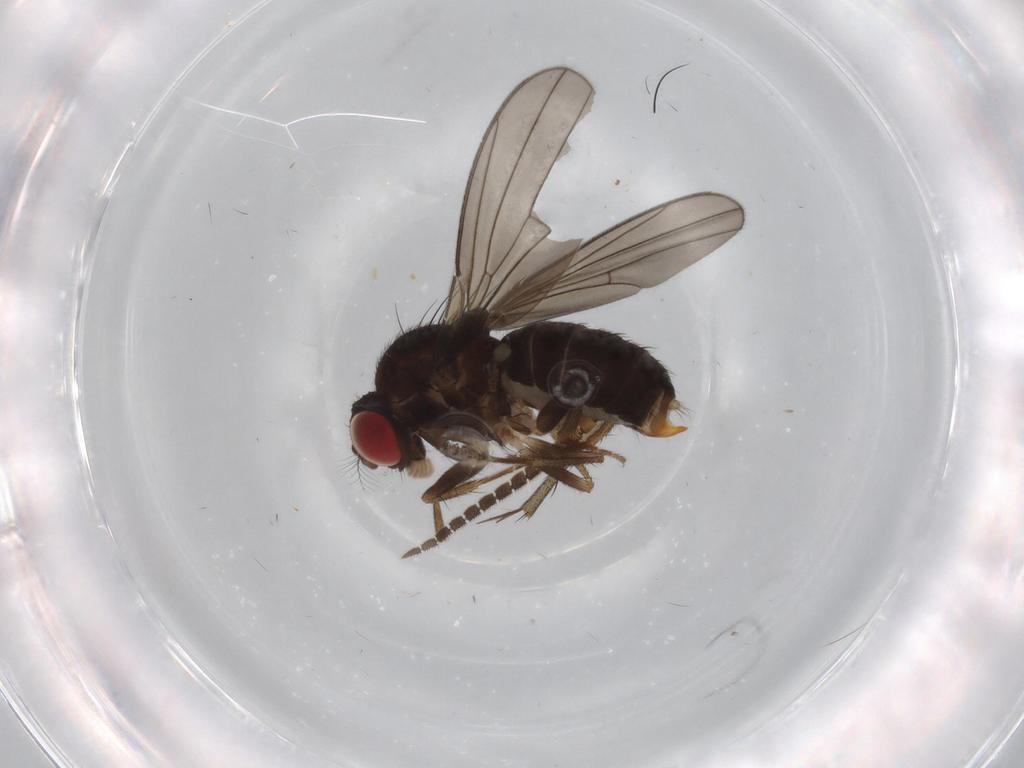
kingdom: Animalia
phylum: Arthropoda
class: Insecta
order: Diptera
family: Drosophilidae
